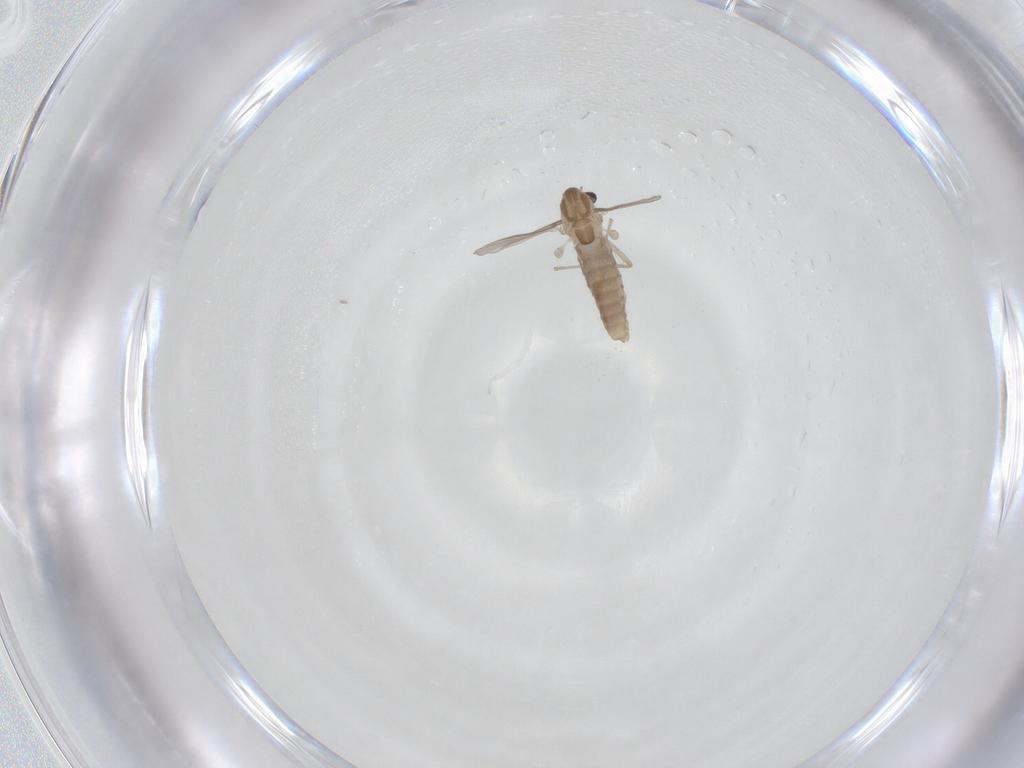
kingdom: Animalia
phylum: Arthropoda
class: Insecta
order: Diptera
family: Chironomidae
